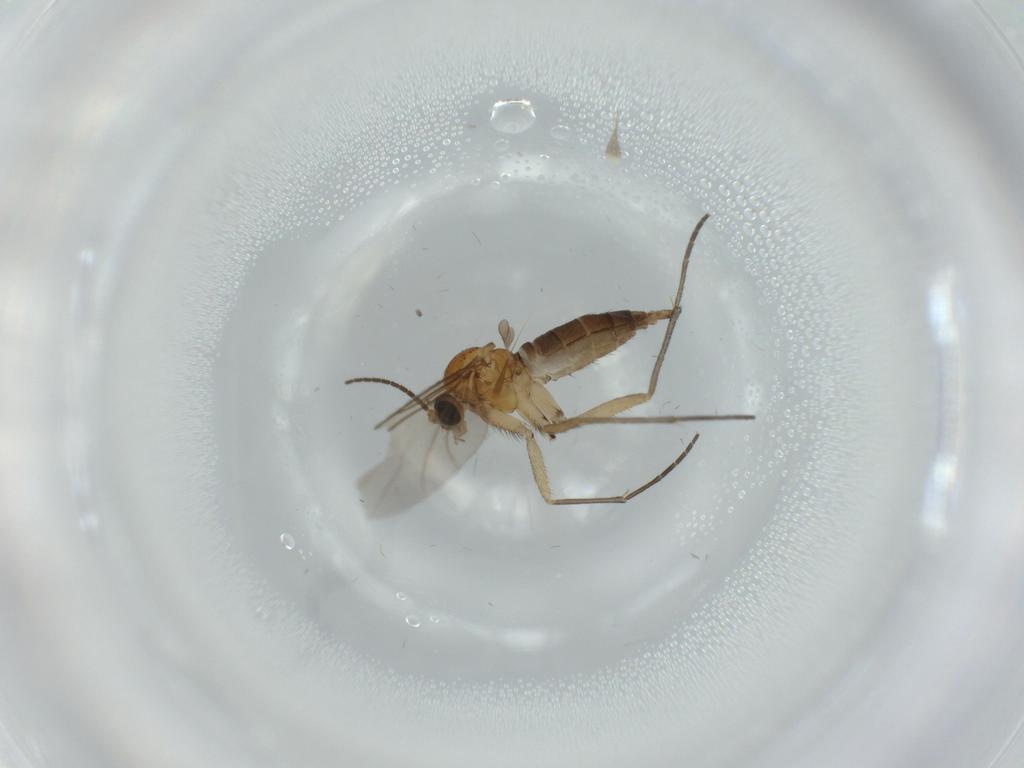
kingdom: Animalia
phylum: Arthropoda
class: Insecta
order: Diptera
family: Sciaridae
